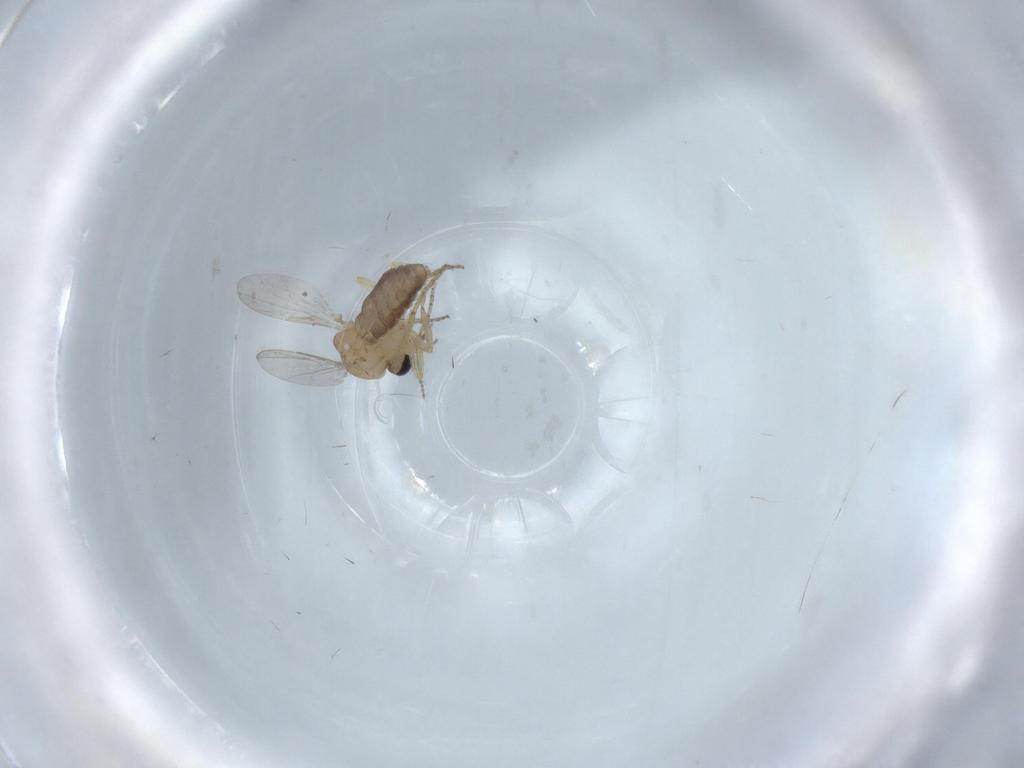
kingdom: Animalia
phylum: Arthropoda
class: Insecta
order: Diptera
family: Ceratopogonidae
